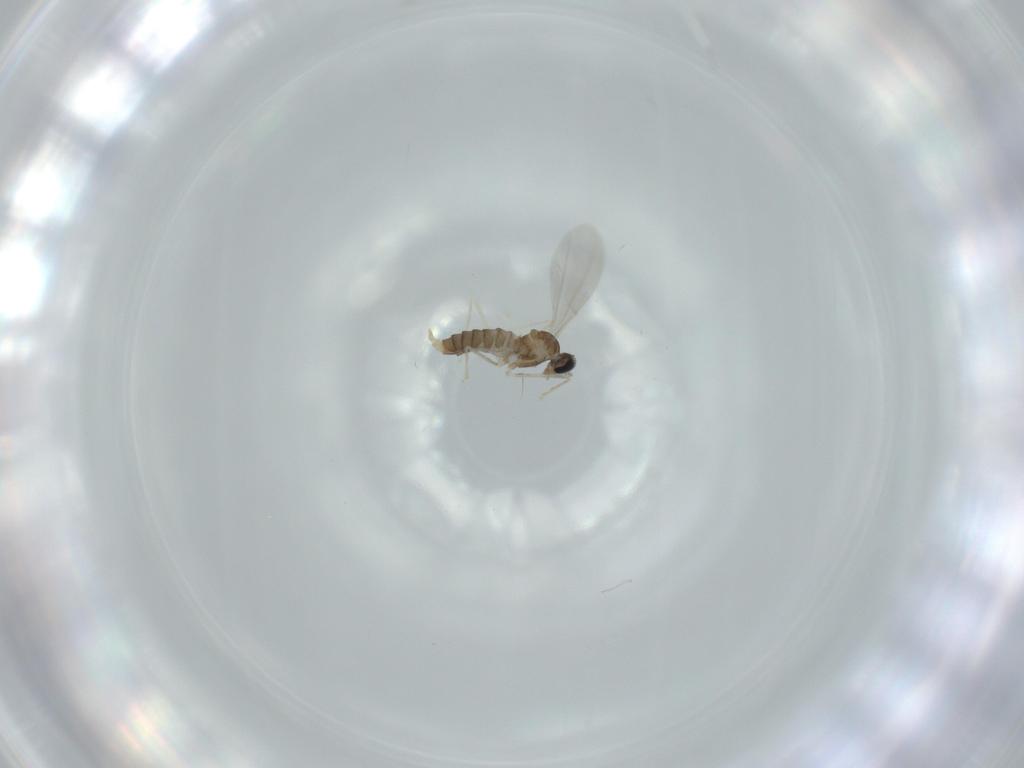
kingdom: Animalia
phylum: Arthropoda
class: Insecta
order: Diptera
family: Cecidomyiidae
